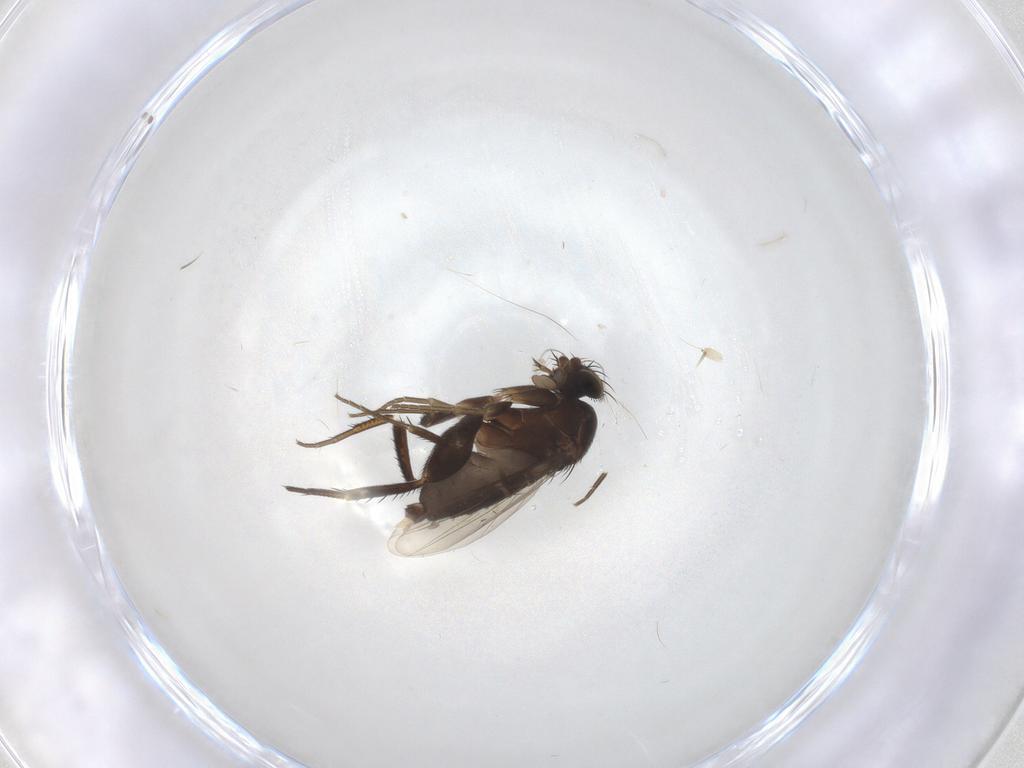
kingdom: Animalia
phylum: Arthropoda
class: Insecta
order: Diptera
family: Phoridae
